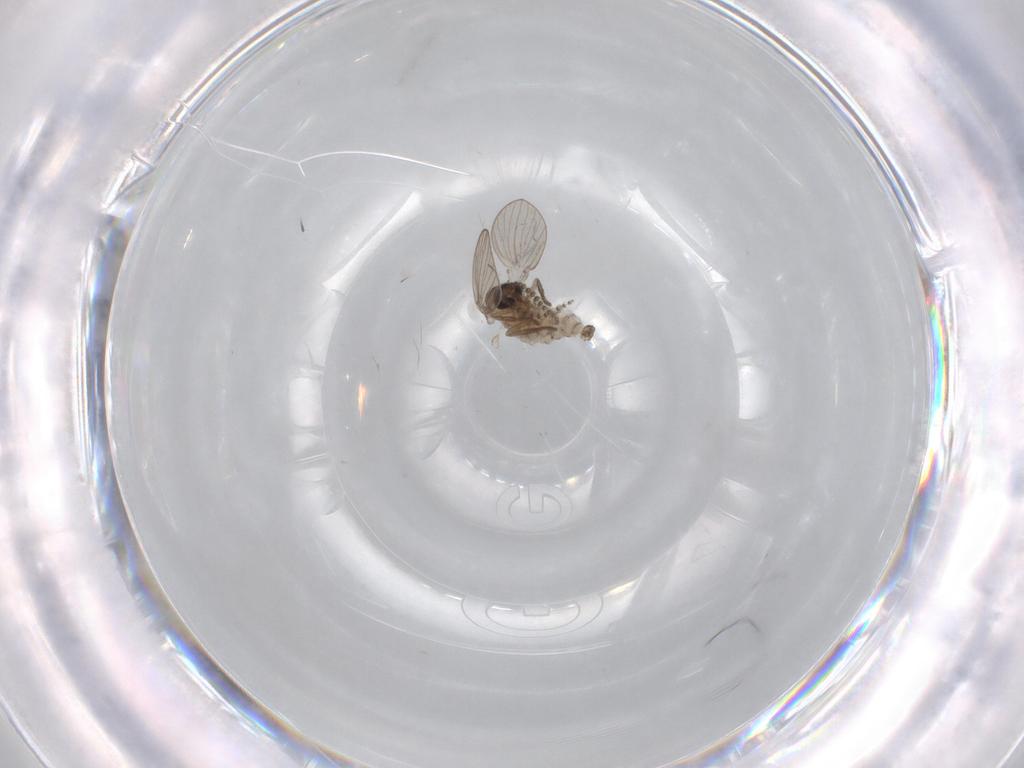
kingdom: Animalia
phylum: Arthropoda
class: Insecta
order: Diptera
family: Psychodidae
